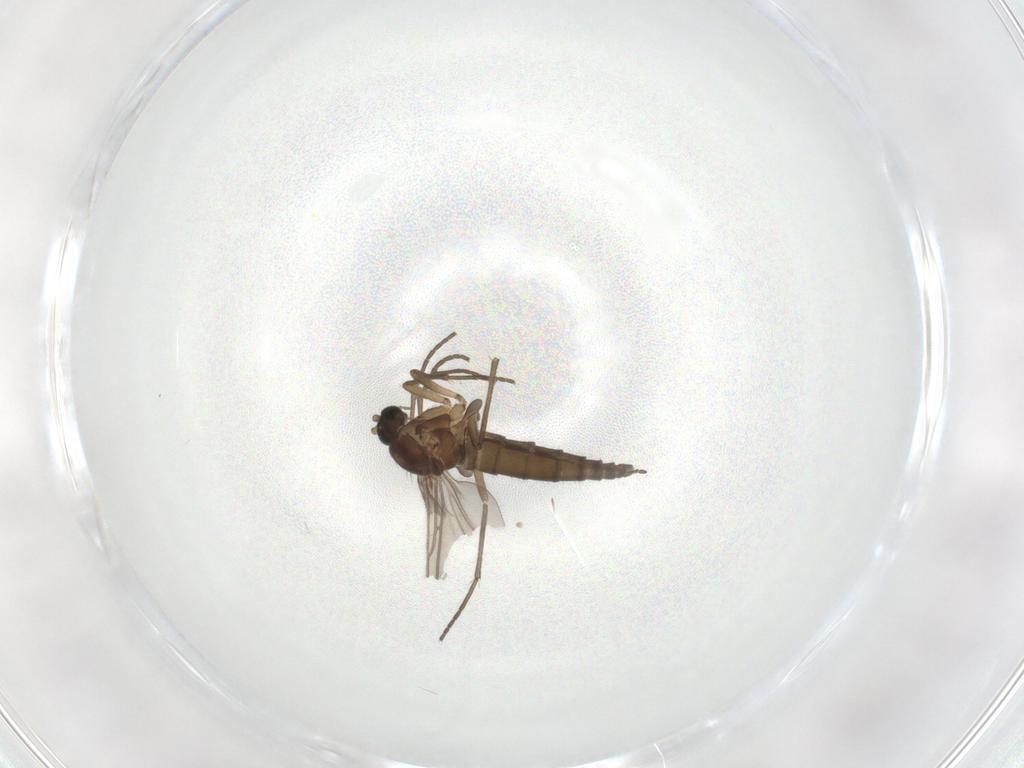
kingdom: Animalia
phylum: Arthropoda
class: Insecta
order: Diptera
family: Sciaridae
